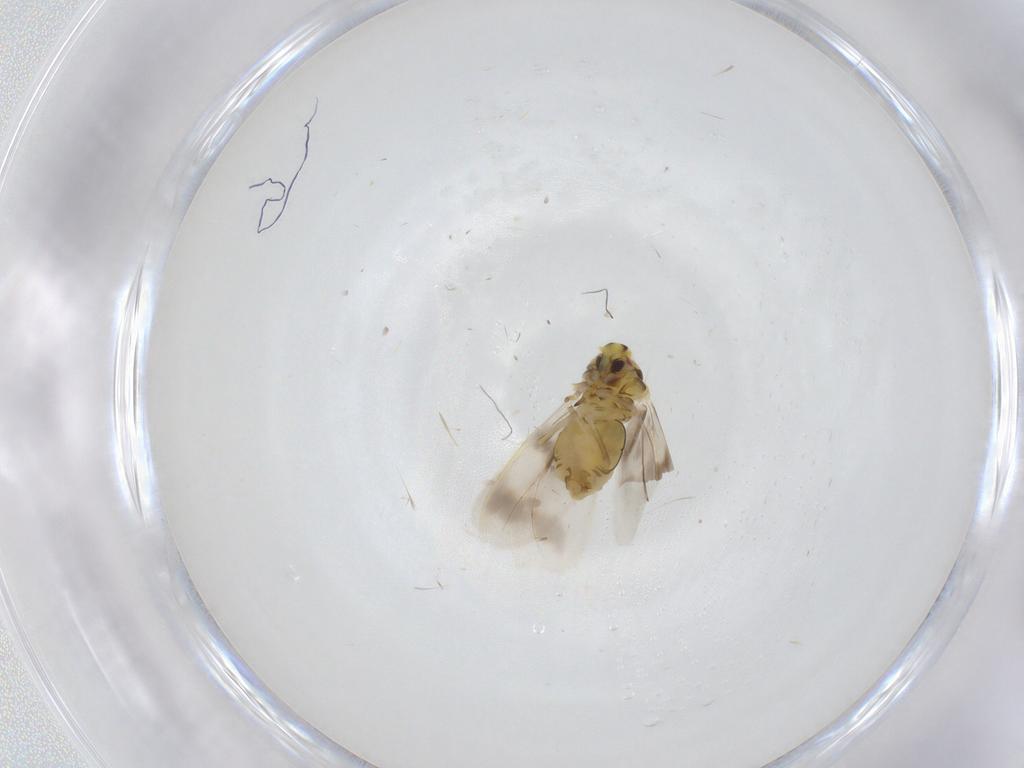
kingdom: Animalia
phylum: Arthropoda
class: Insecta
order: Hemiptera
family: Aleyrodidae
